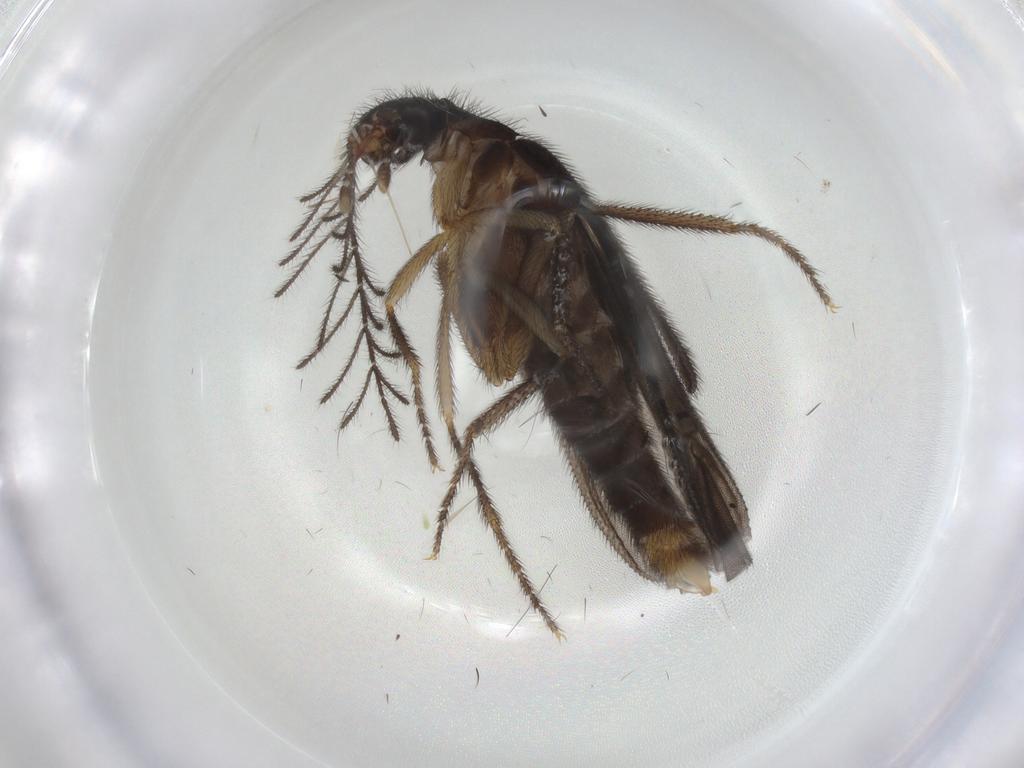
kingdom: Animalia
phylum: Arthropoda
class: Insecta
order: Coleoptera
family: Phengodidae
